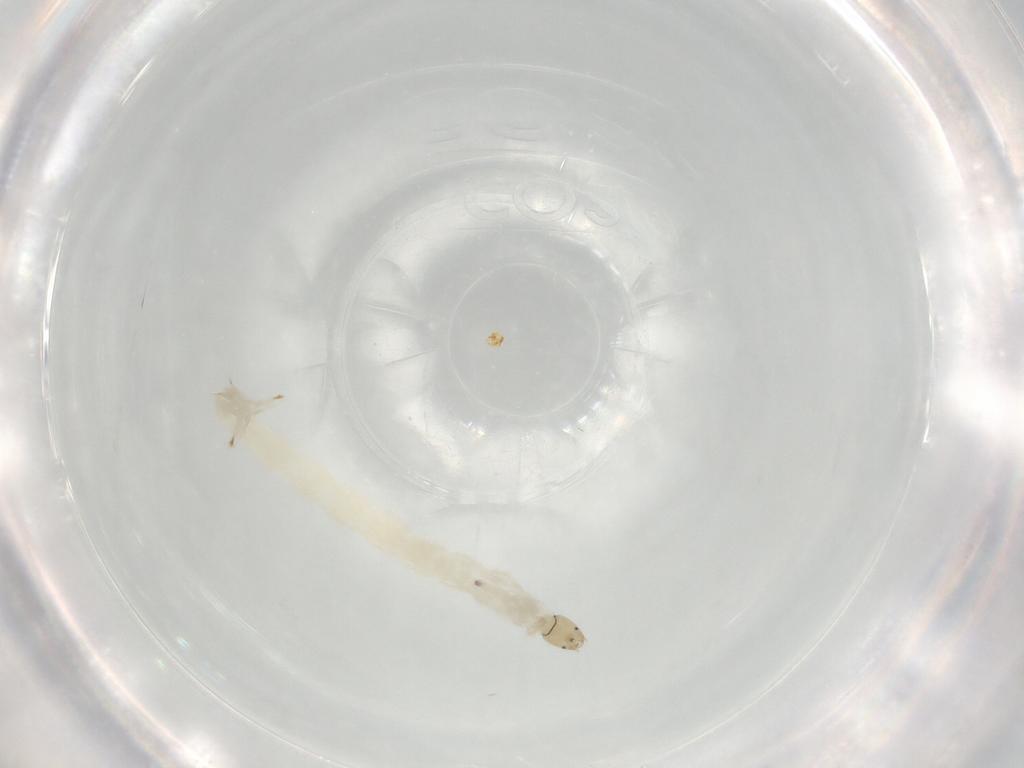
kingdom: Animalia
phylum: Arthropoda
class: Insecta
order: Diptera
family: Chironomidae
